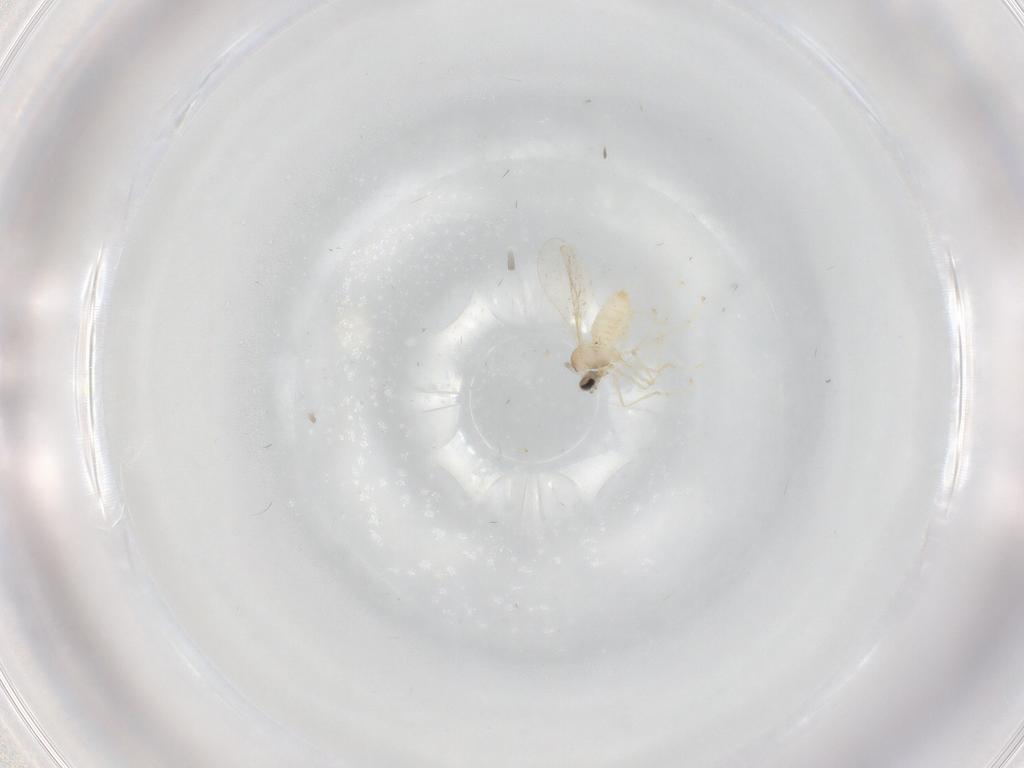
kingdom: Animalia
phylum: Arthropoda
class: Insecta
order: Diptera
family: Cecidomyiidae
